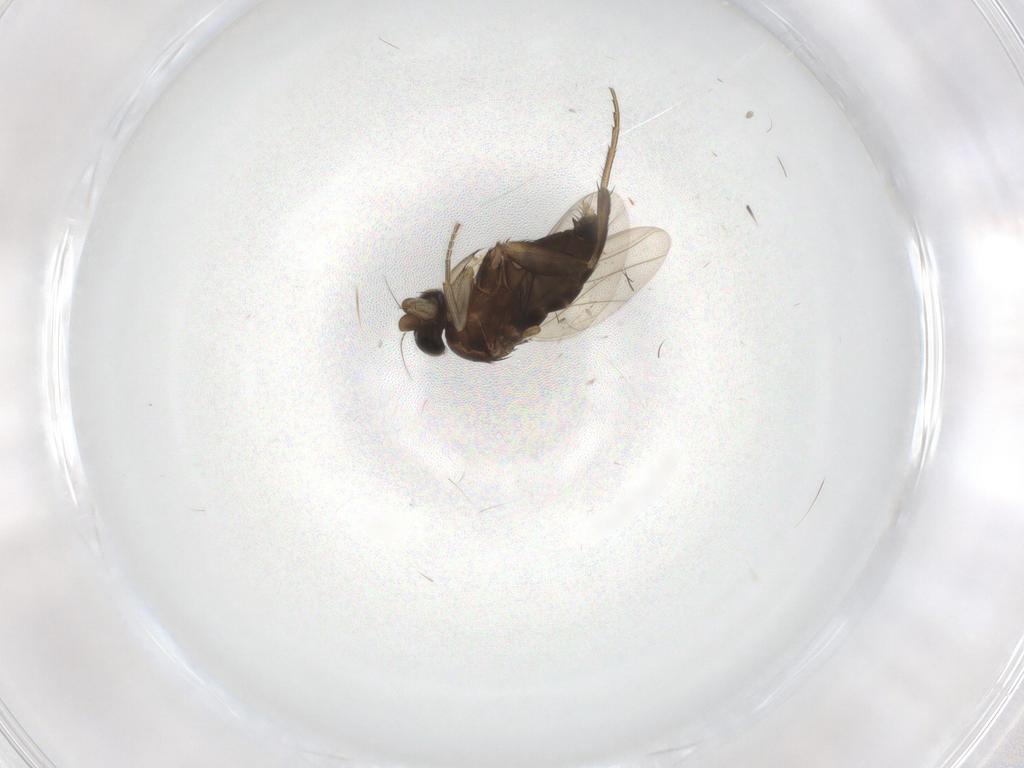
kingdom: Animalia
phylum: Arthropoda
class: Insecta
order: Diptera
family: Phoridae
